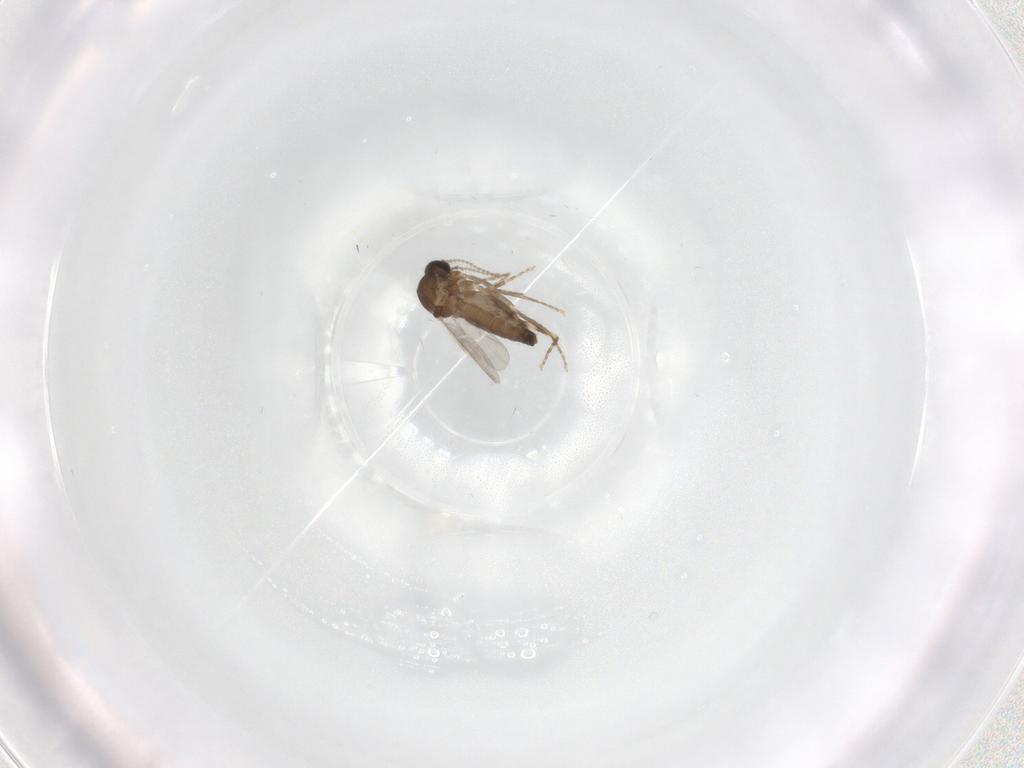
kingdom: Animalia
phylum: Arthropoda
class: Insecta
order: Diptera
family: Ceratopogonidae
